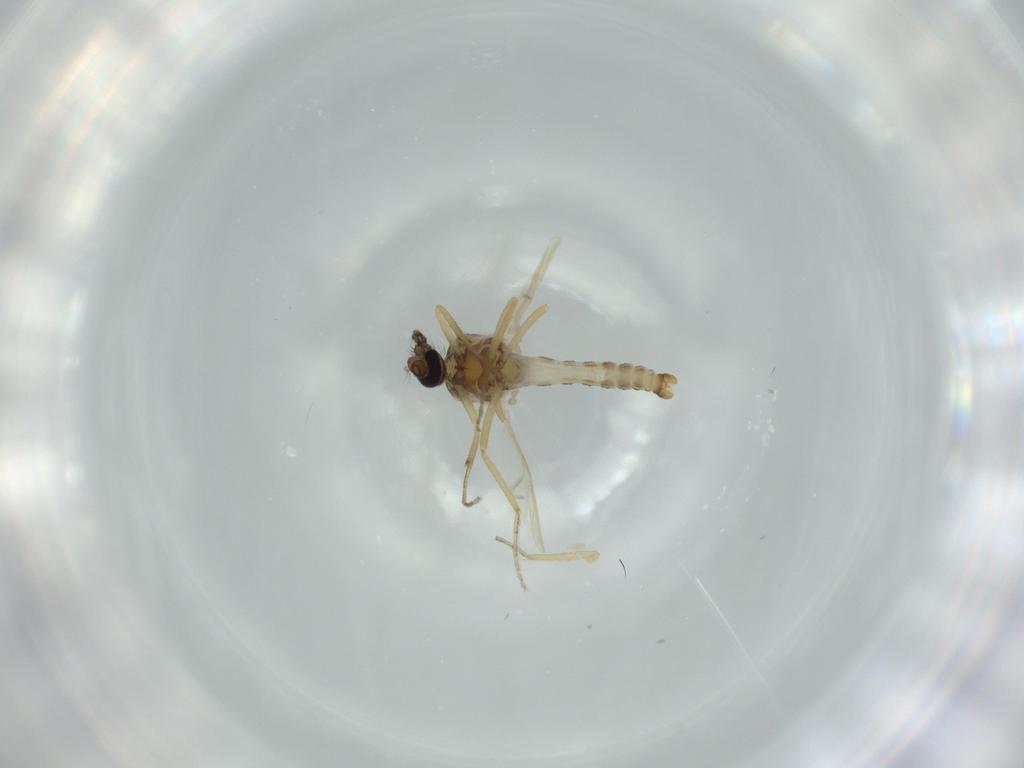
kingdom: Animalia
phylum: Arthropoda
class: Insecta
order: Diptera
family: Ceratopogonidae
